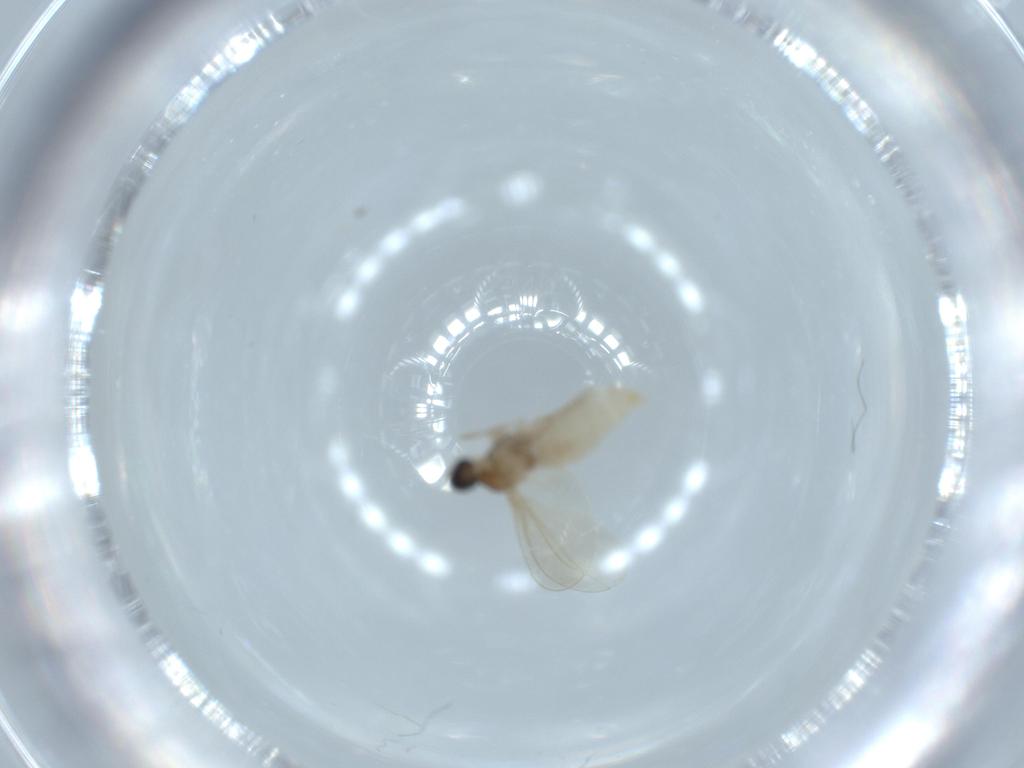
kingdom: Animalia
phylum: Arthropoda
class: Insecta
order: Diptera
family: Cecidomyiidae
